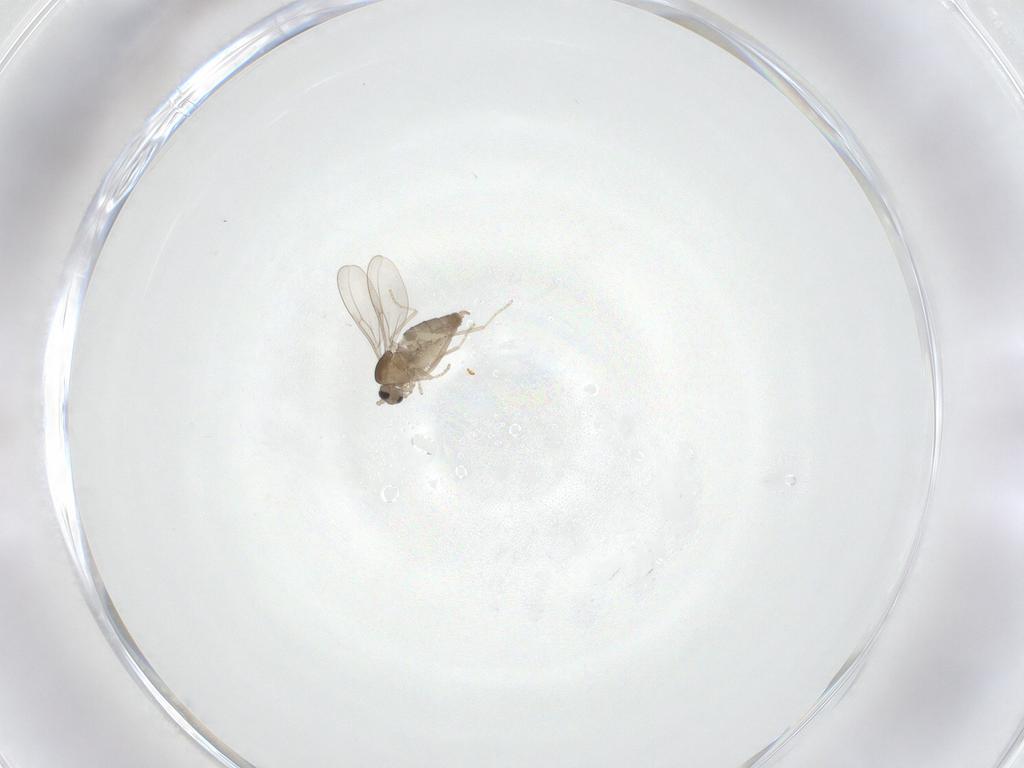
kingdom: Animalia
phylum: Arthropoda
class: Insecta
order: Diptera
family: Cecidomyiidae
